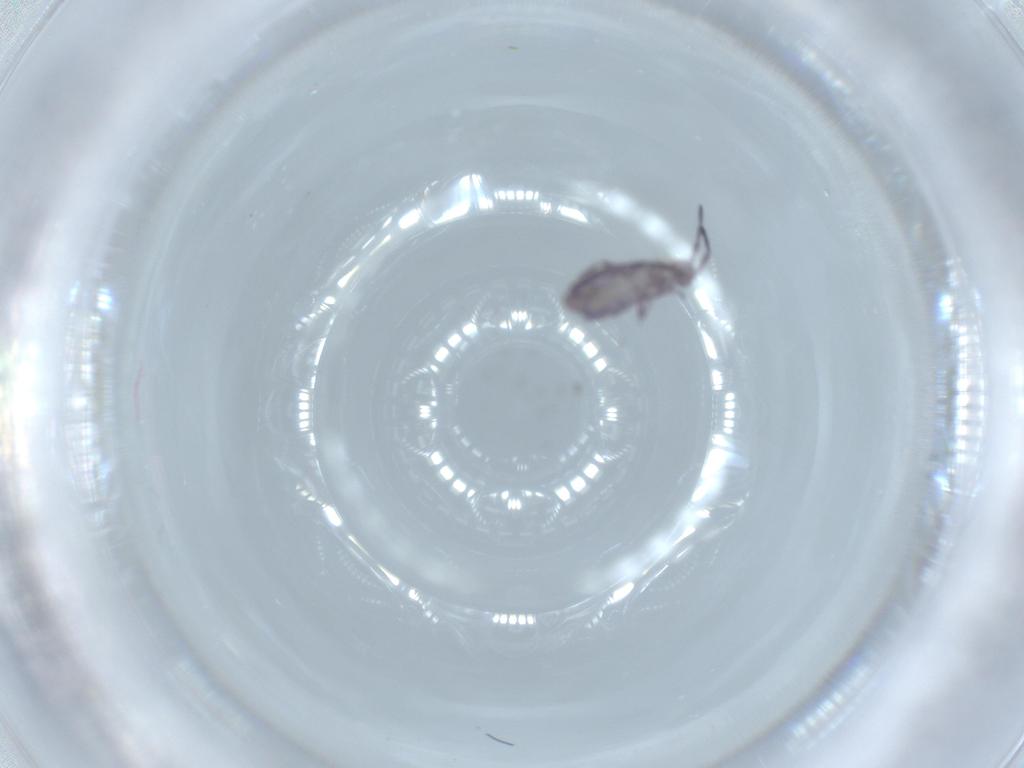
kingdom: Animalia
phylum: Arthropoda
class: Collembola
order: Entomobryomorpha
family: Entomobryidae
